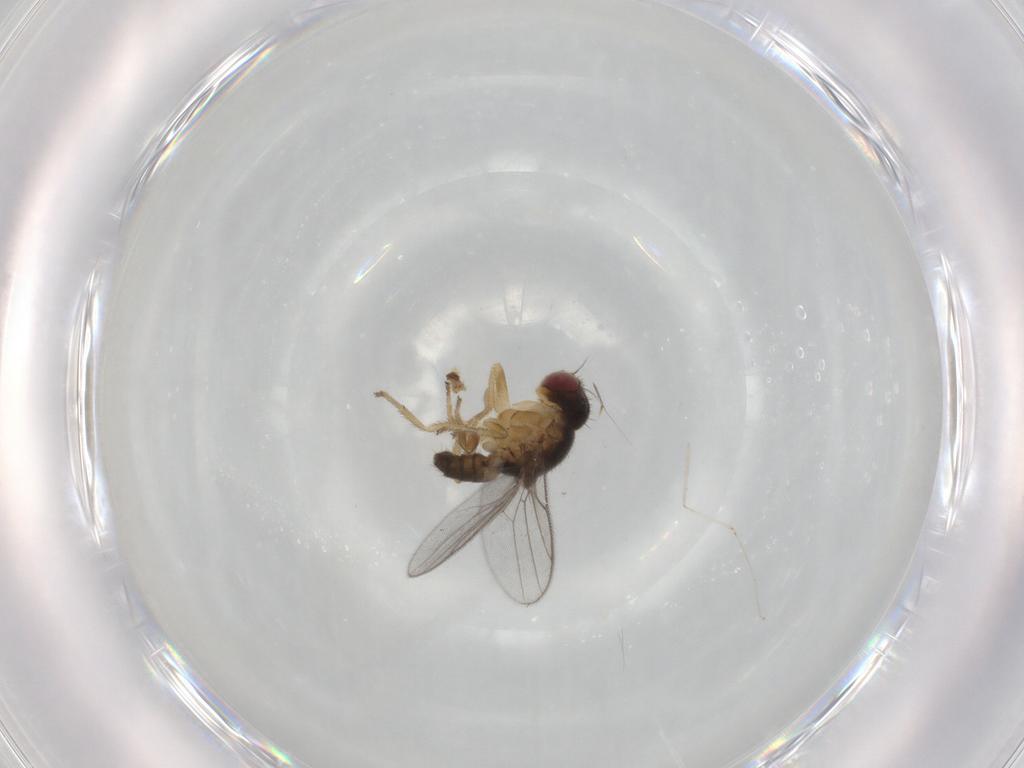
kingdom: Animalia
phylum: Arthropoda
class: Insecta
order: Diptera
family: Chloropidae
